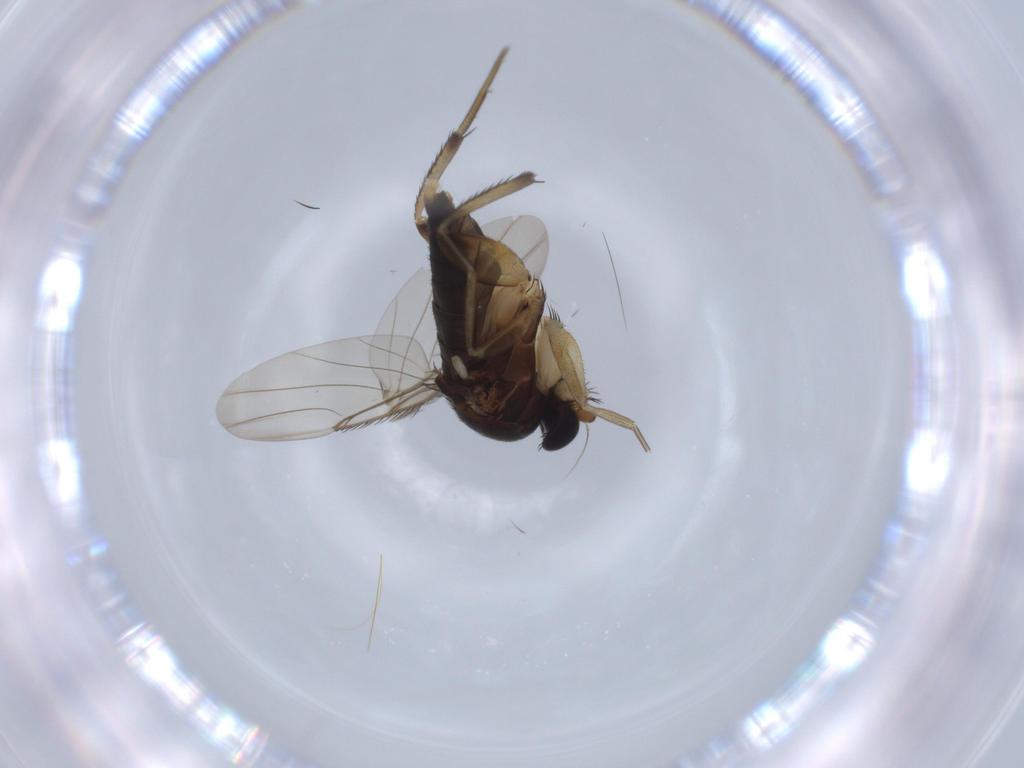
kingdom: Animalia
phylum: Arthropoda
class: Insecta
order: Diptera
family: Phoridae
